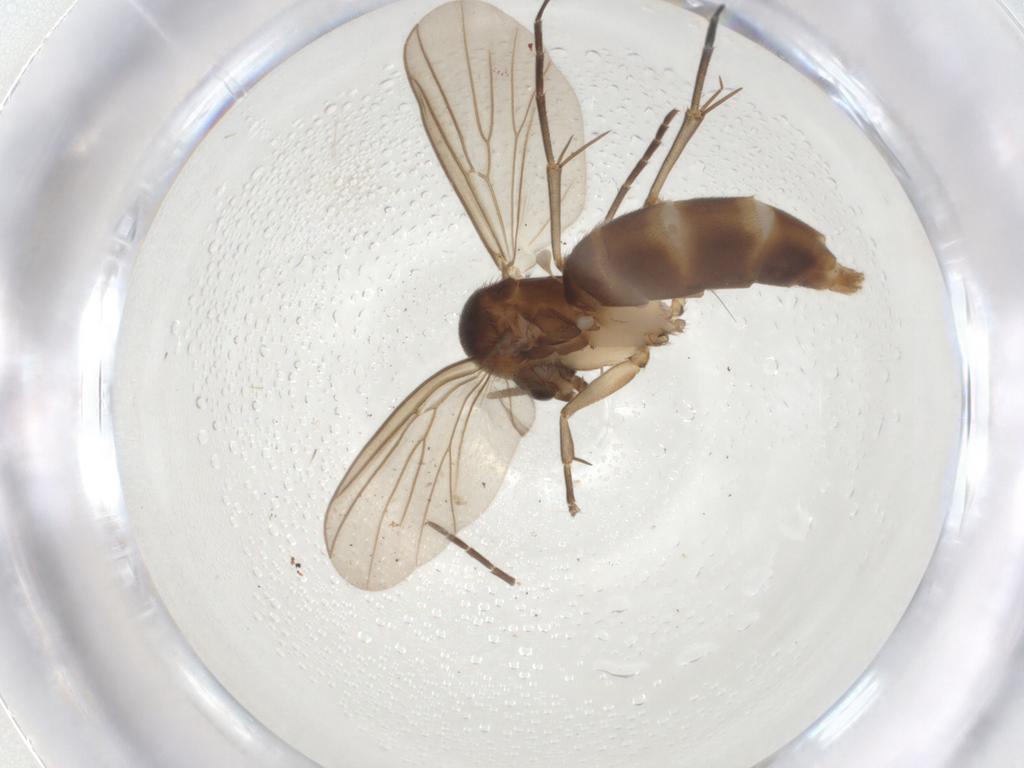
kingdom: Animalia
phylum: Arthropoda
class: Insecta
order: Diptera
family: Mycetophilidae
